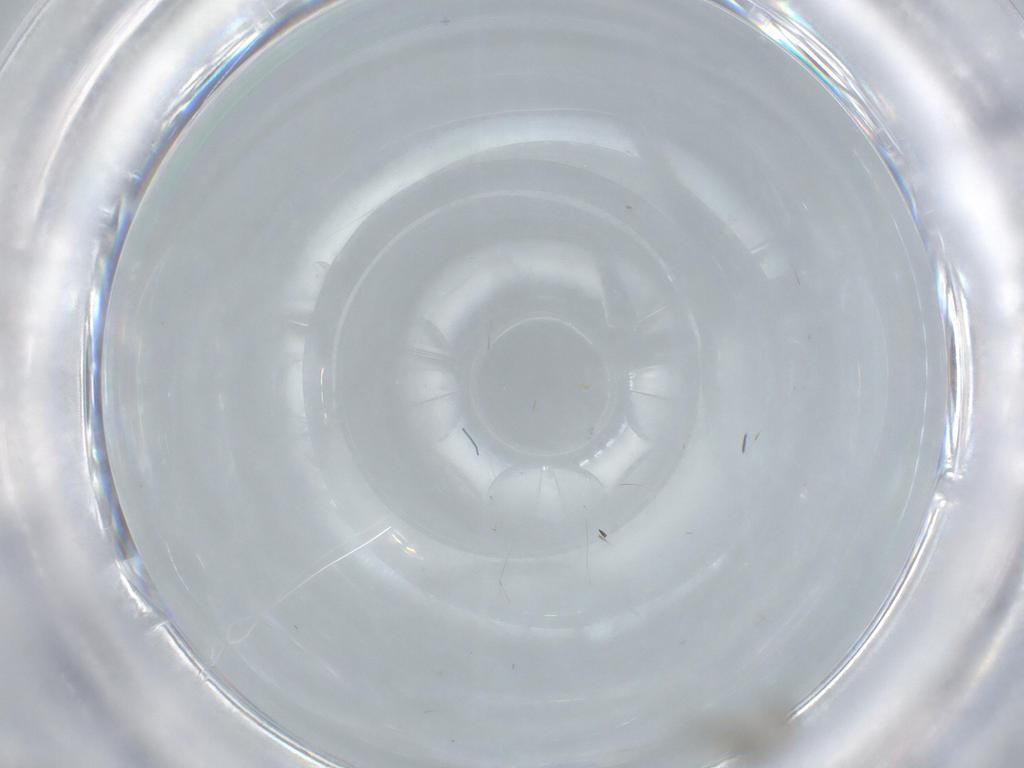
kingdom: Animalia
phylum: Arthropoda
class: Insecta
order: Diptera
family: Phoridae
